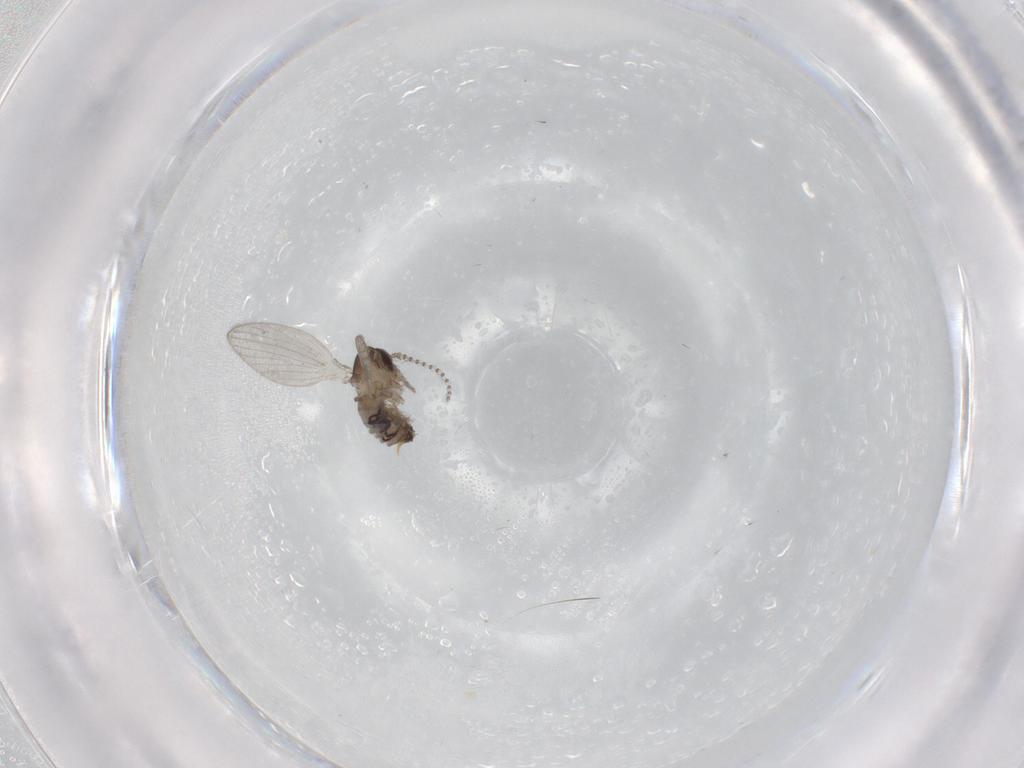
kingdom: Animalia
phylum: Arthropoda
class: Insecta
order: Diptera
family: Psychodidae
